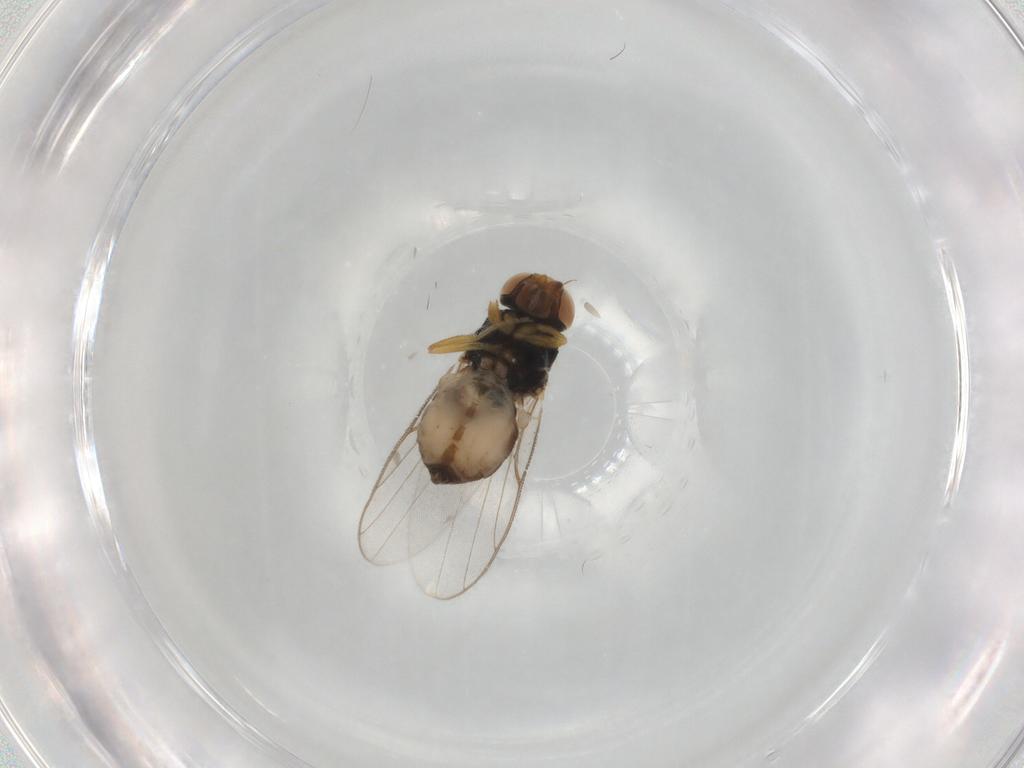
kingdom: Animalia
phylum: Arthropoda
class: Insecta
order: Diptera
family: Chloropidae
